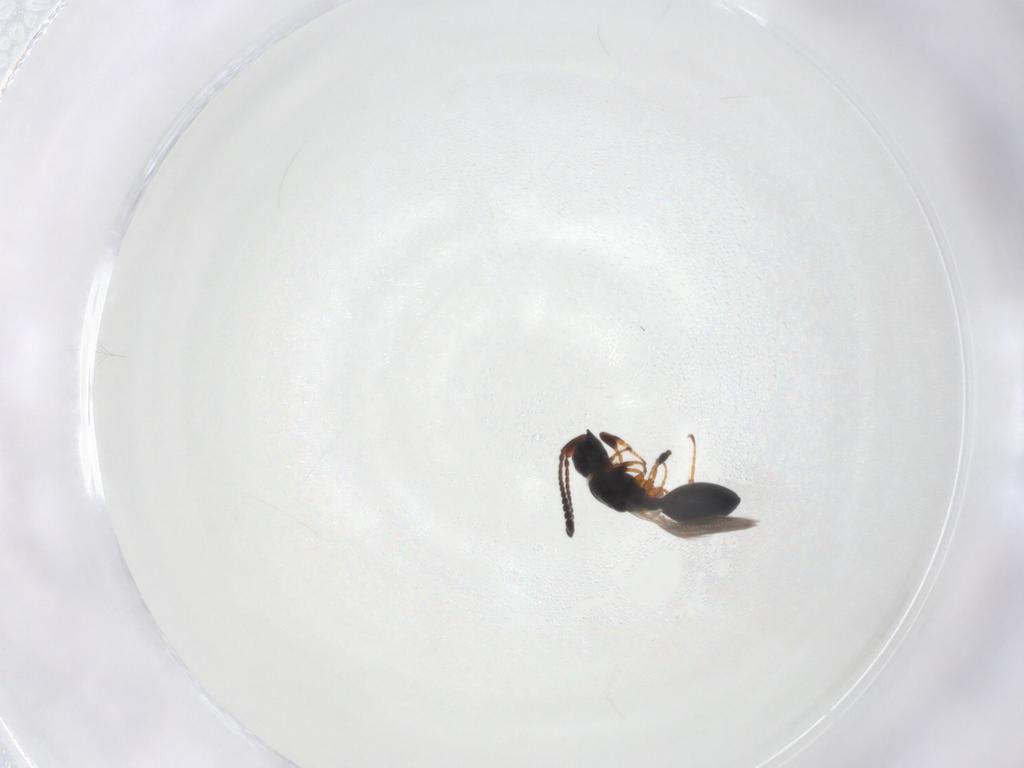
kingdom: Animalia
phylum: Arthropoda
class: Insecta
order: Hymenoptera
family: Diapriidae
